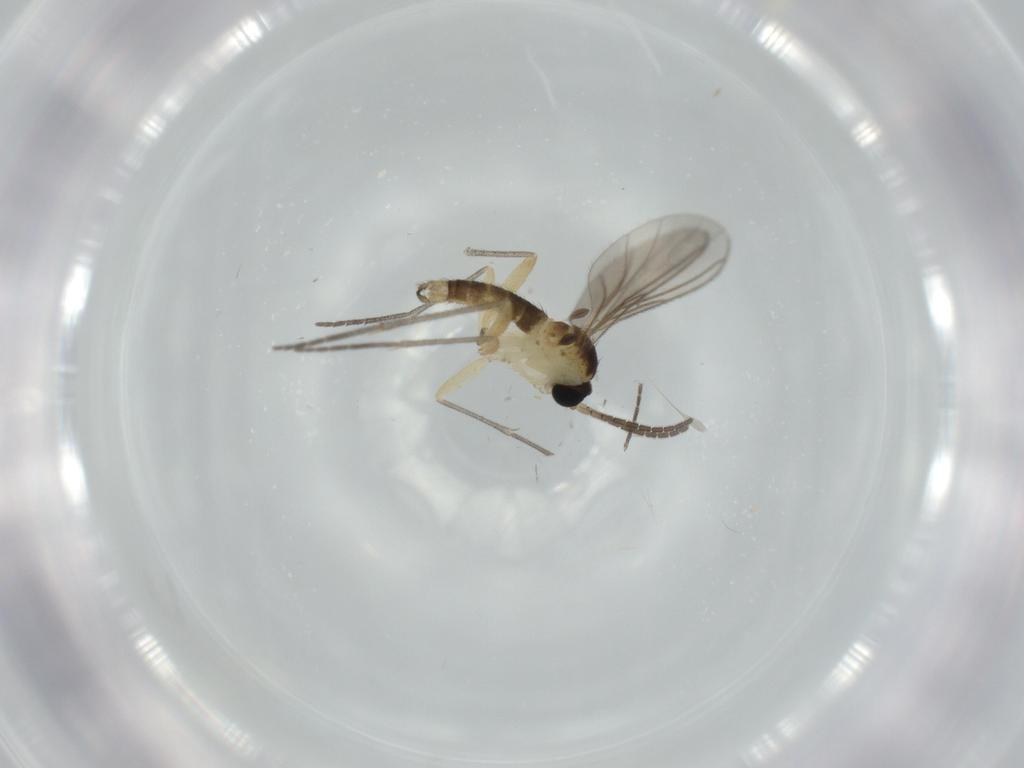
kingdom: Animalia
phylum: Arthropoda
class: Insecta
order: Diptera
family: Sciaridae
